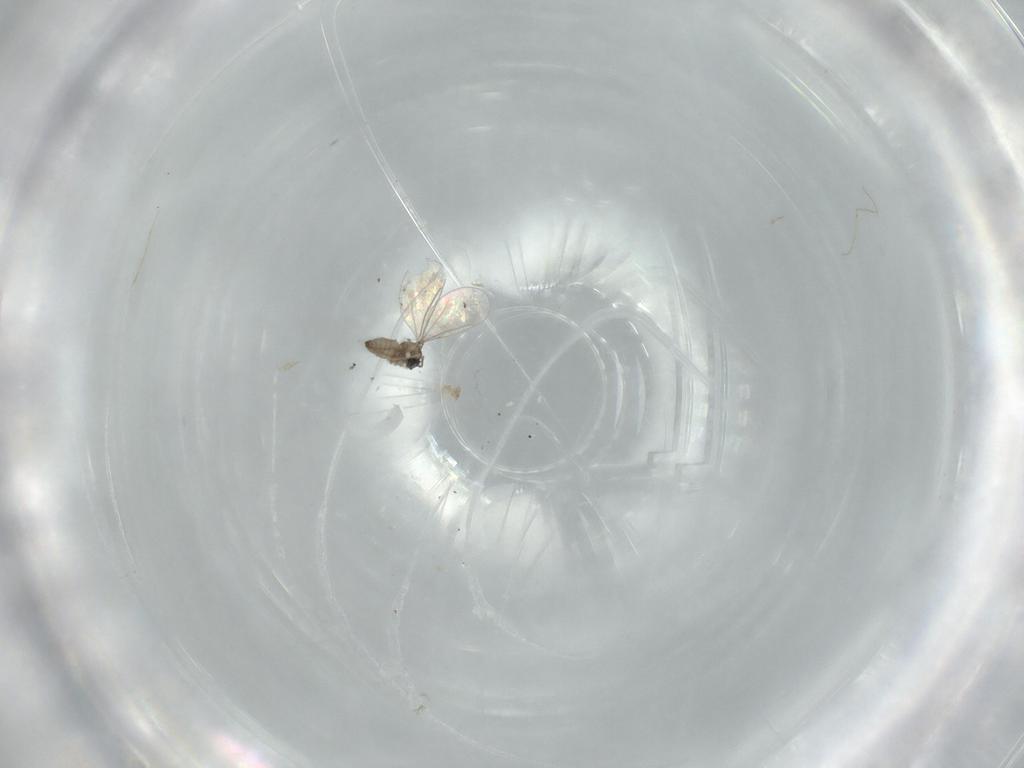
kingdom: Animalia
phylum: Arthropoda
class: Insecta
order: Diptera
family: Cecidomyiidae
